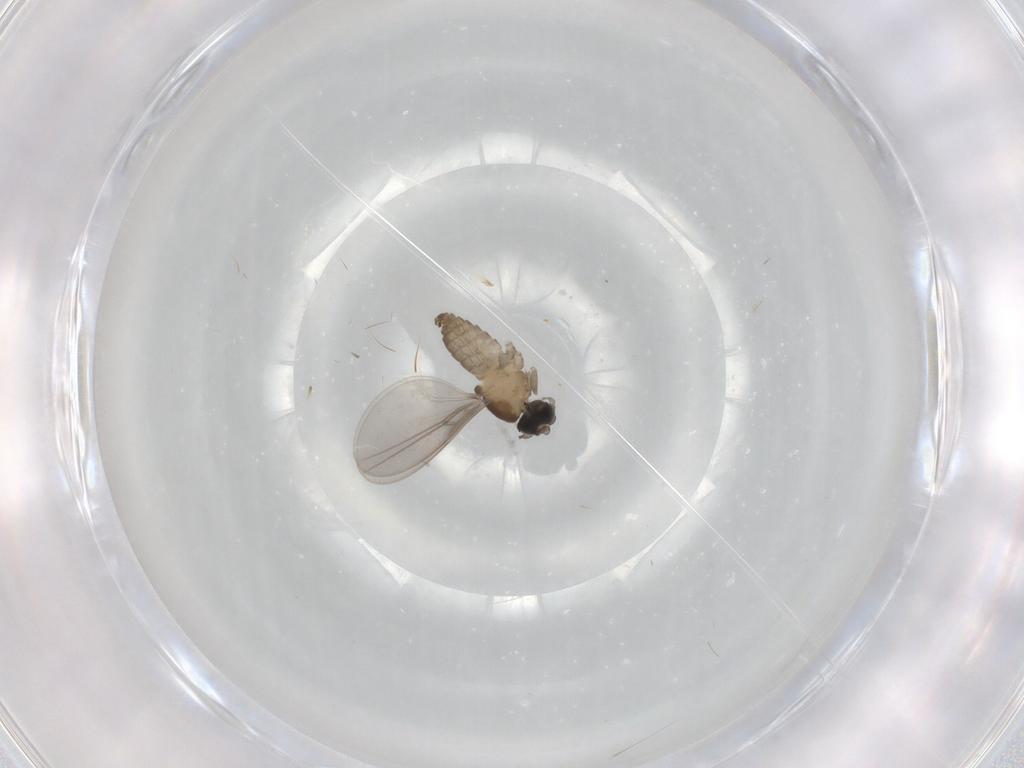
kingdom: Animalia
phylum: Arthropoda
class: Insecta
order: Diptera
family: Cecidomyiidae
